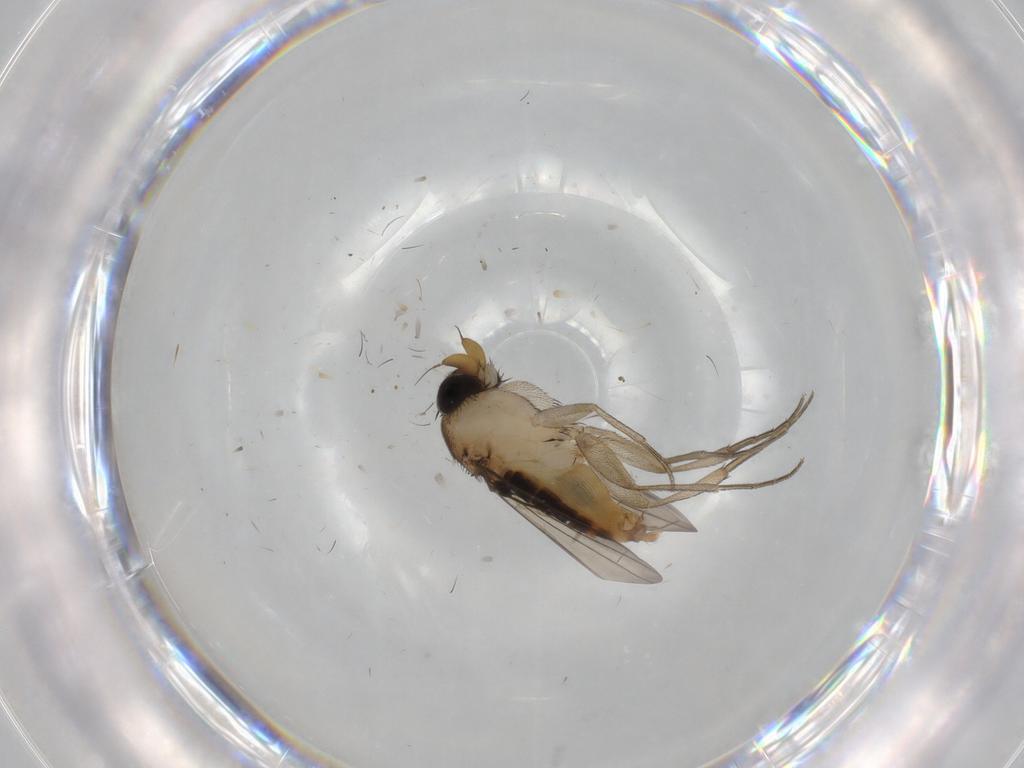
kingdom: Animalia
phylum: Arthropoda
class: Insecta
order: Diptera
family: Phoridae
